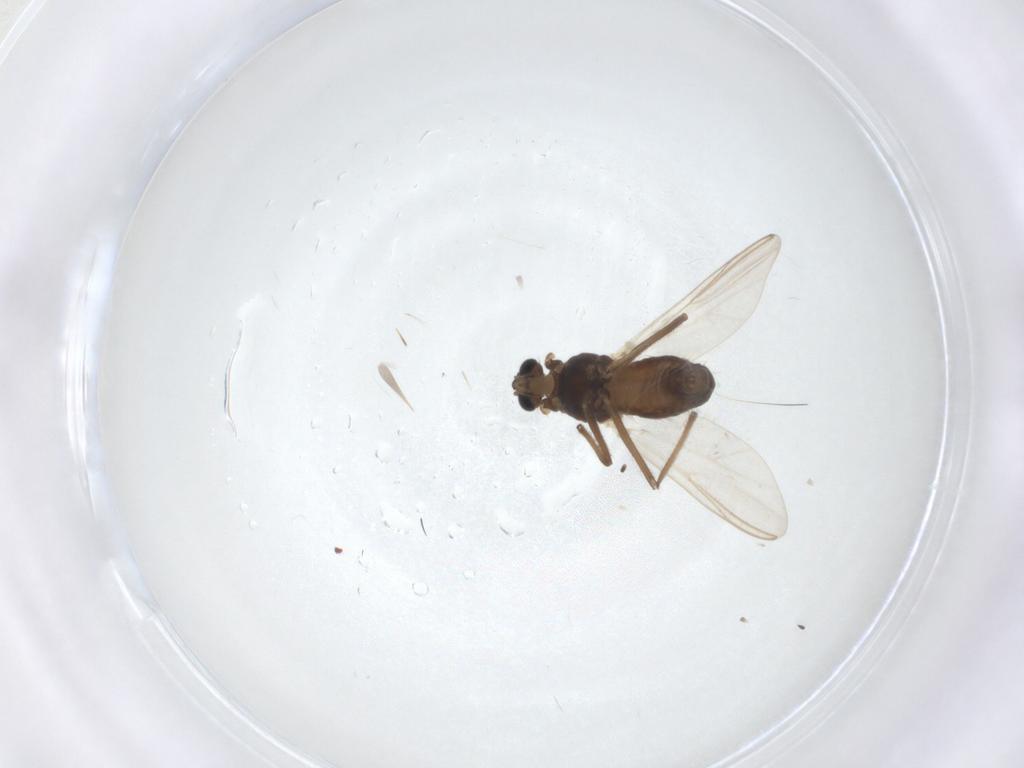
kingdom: Animalia
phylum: Arthropoda
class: Insecta
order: Diptera
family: Chironomidae
